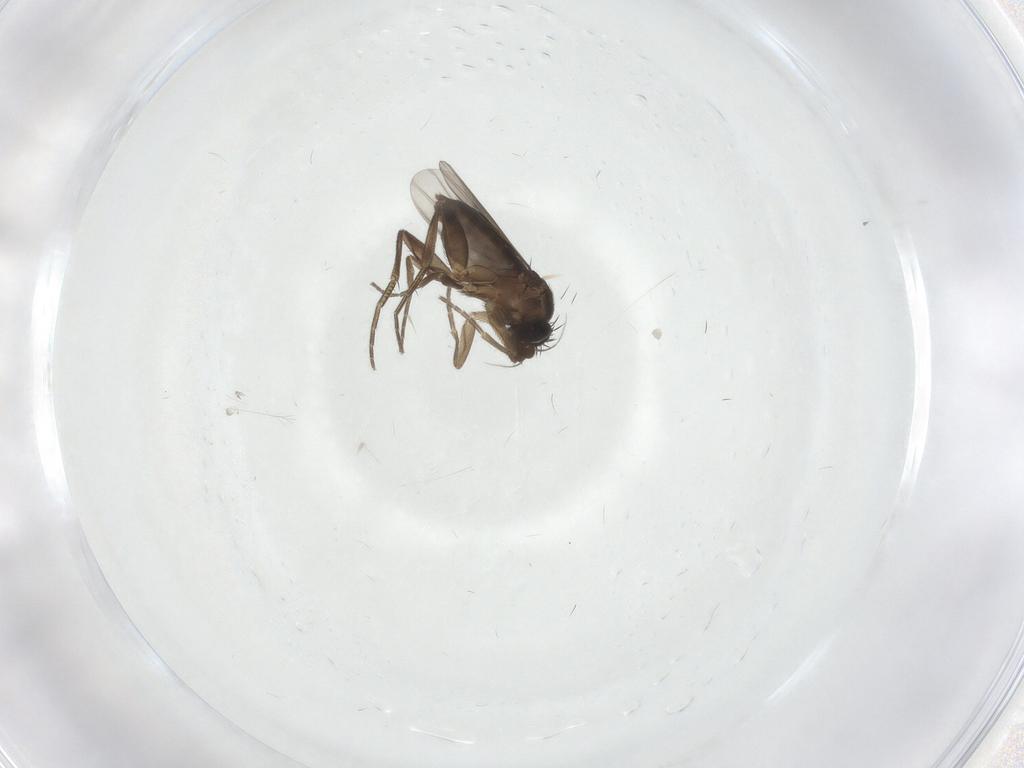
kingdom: Animalia
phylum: Arthropoda
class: Insecta
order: Diptera
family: Phoridae
